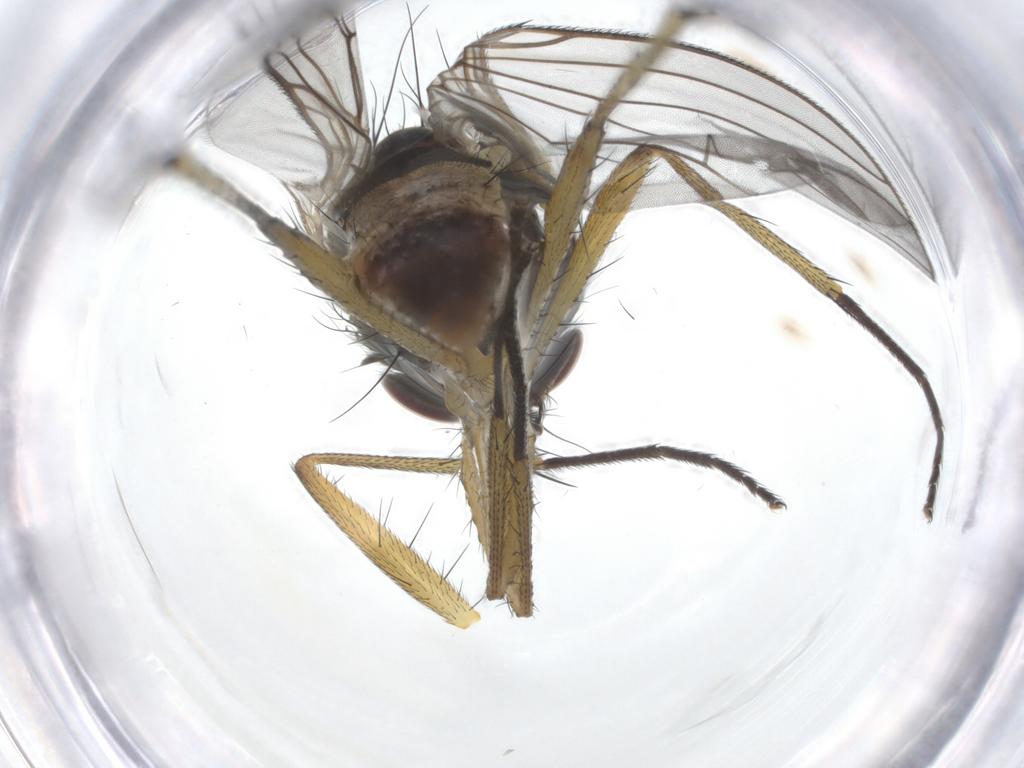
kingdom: Animalia
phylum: Arthropoda
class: Insecta
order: Diptera
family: Muscidae
